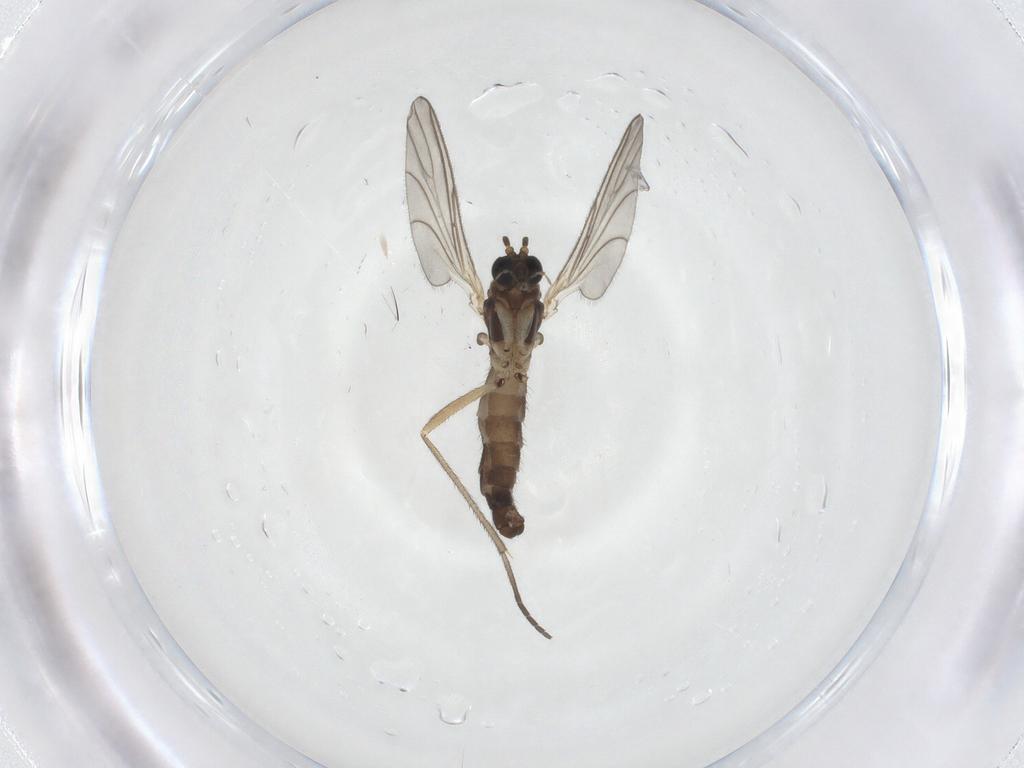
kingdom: Animalia
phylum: Arthropoda
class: Insecta
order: Diptera
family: Sciaridae
